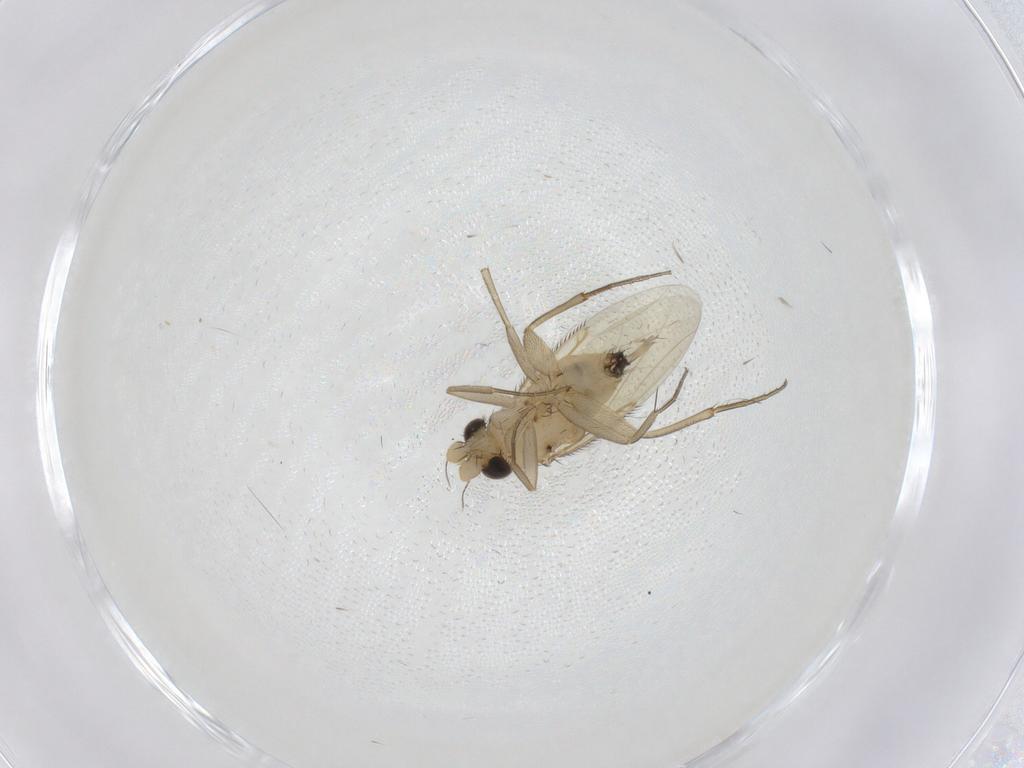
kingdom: Animalia
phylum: Arthropoda
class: Insecta
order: Diptera
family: Phoridae
